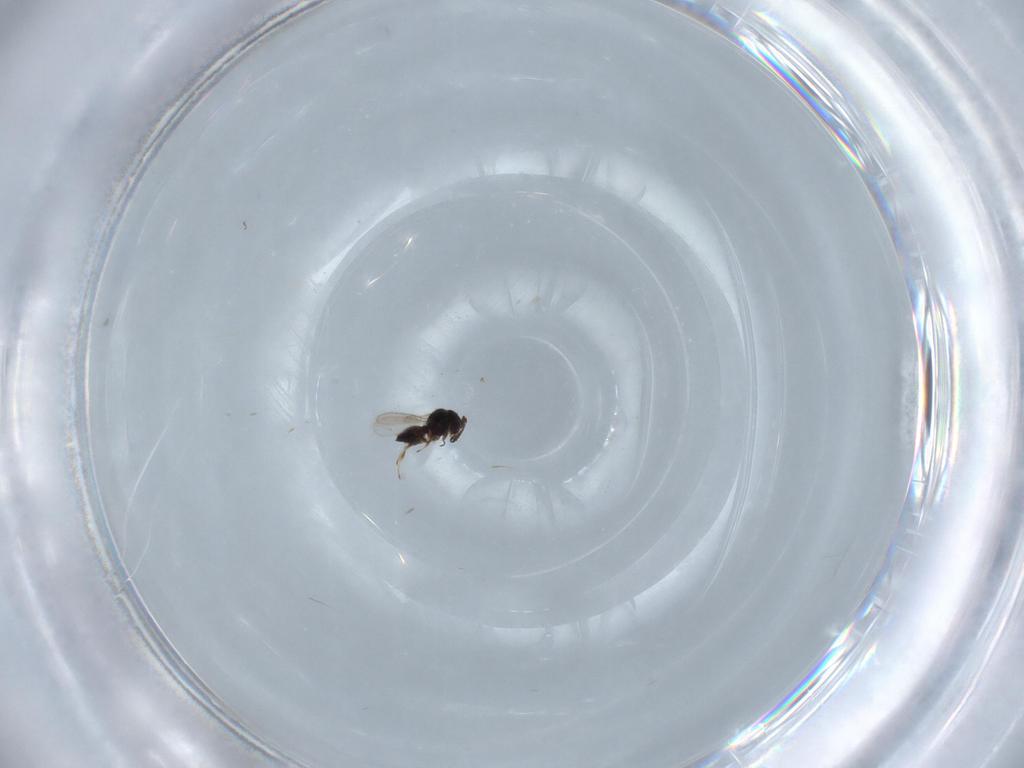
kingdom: Animalia
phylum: Arthropoda
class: Insecta
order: Hymenoptera
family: Scelionidae
